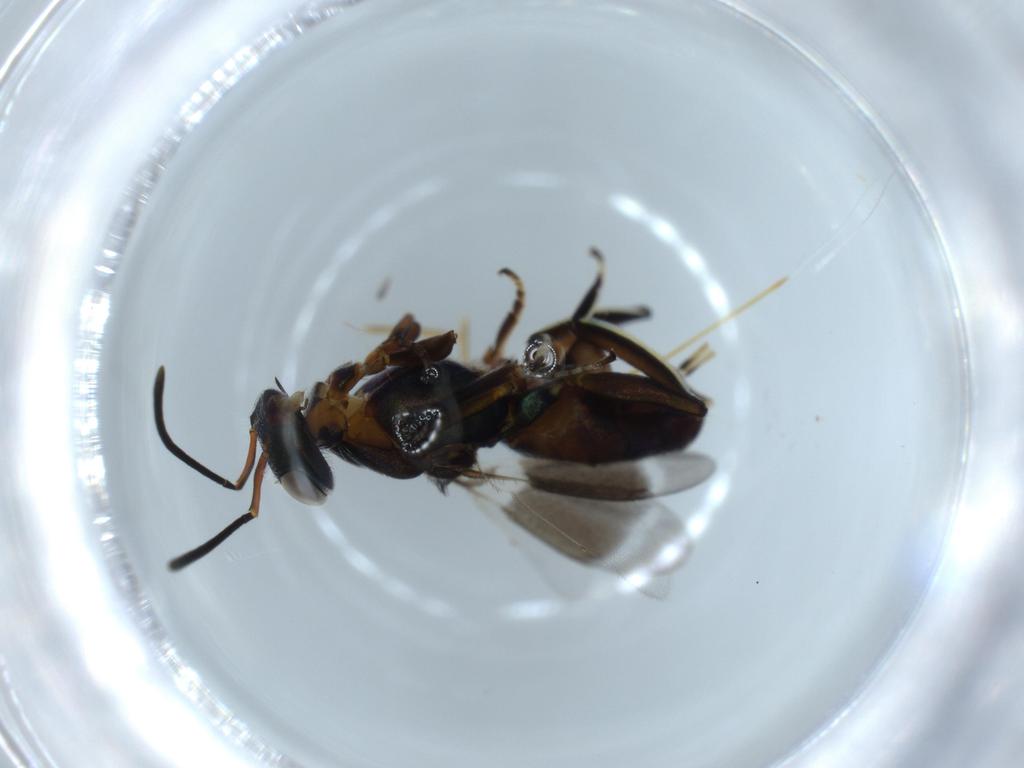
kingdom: Animalia
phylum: Arthropoda
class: Insecta
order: Hymenoptera
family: Eupelmidae
